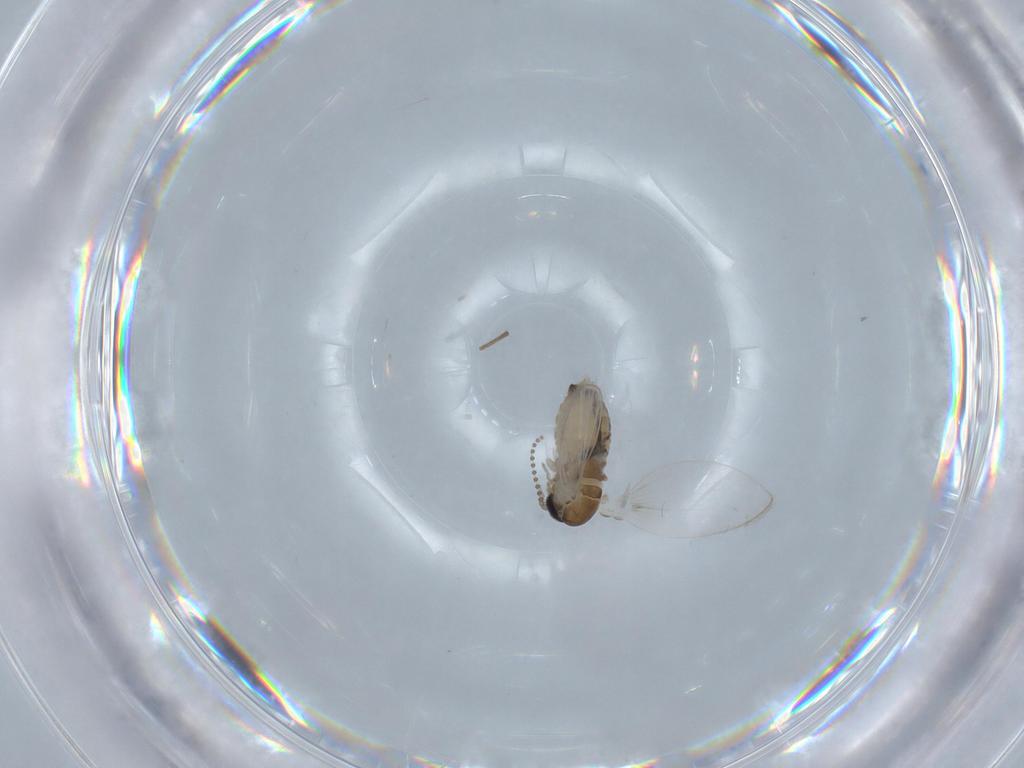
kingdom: Animalia
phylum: Arthropoda
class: Insecta
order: Diptera
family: Psychodidae
